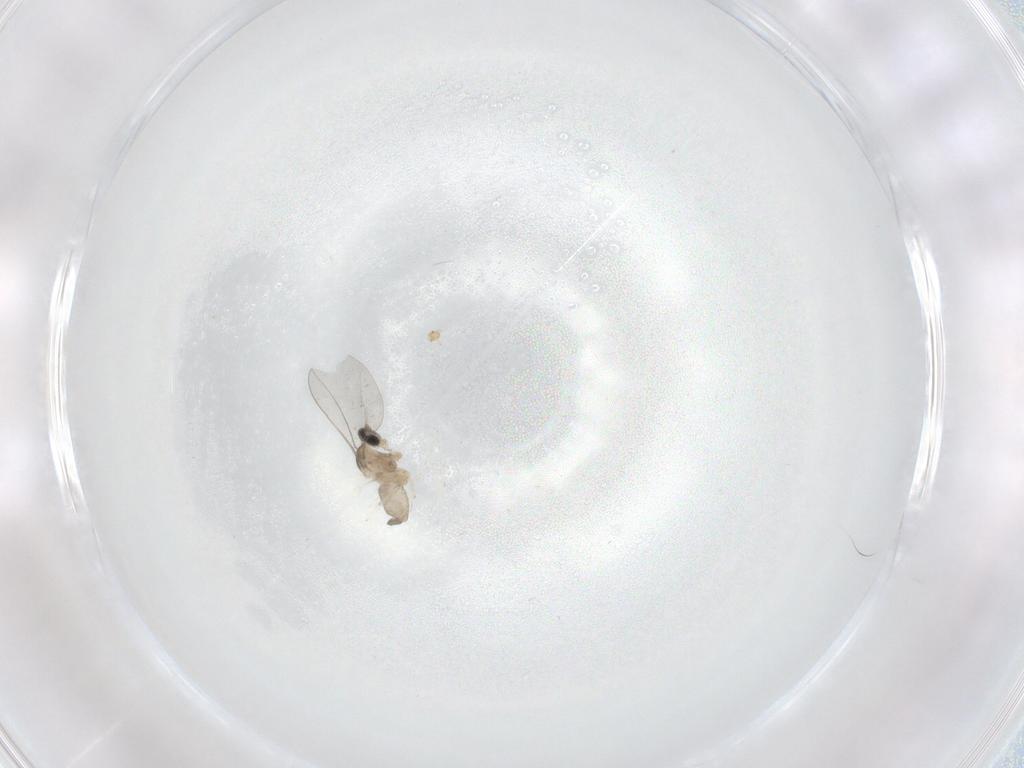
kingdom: Animalia
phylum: Arthropoda
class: Insecta
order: Diptera
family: Cecidomyiidae
